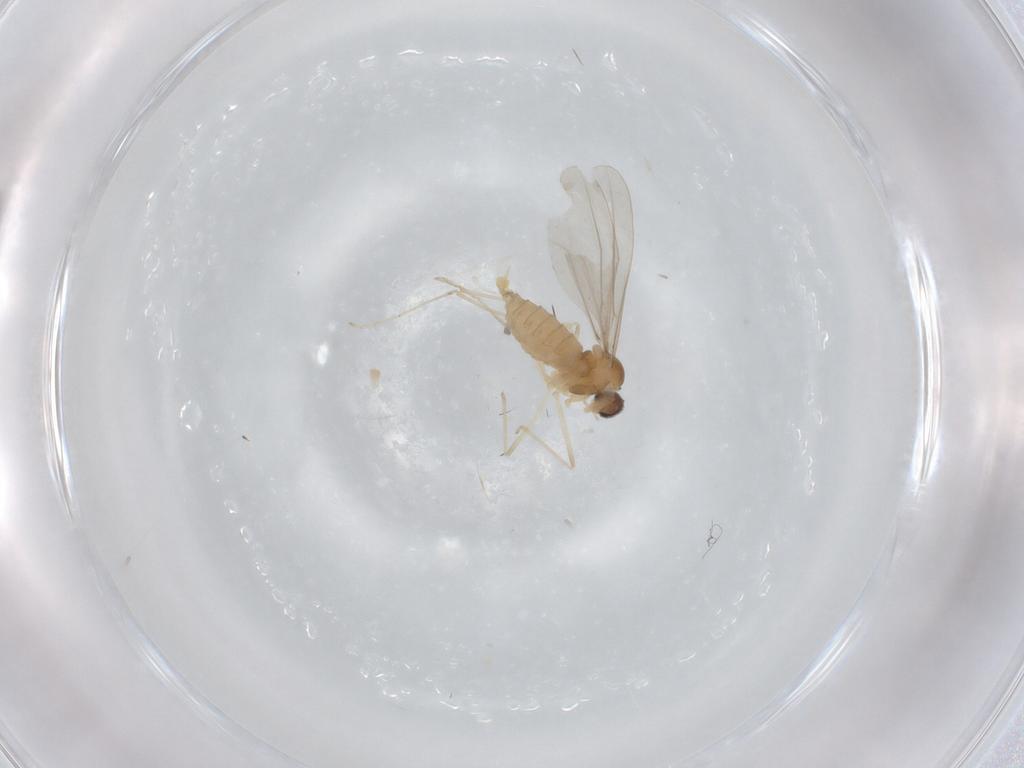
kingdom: Animalia
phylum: Arthropoda
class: Insecta
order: Diptera
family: Cecidomyiidae
